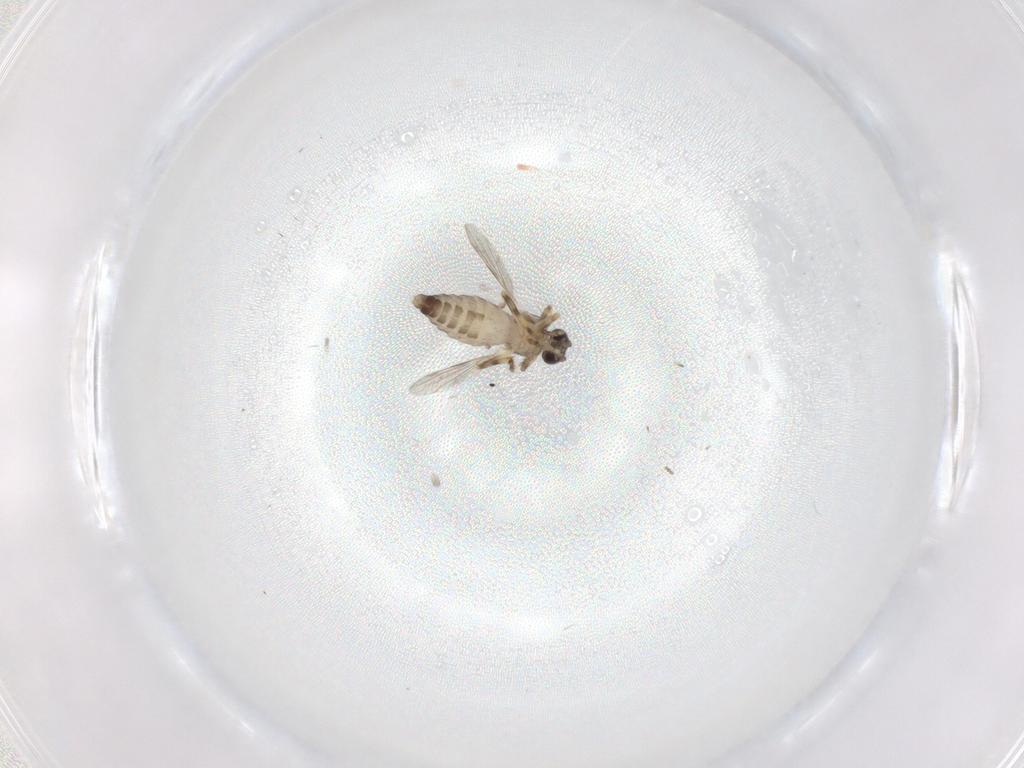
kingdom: Animalia
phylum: Arthropoda
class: Insecta
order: Diptera
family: Ceratopogonidae
